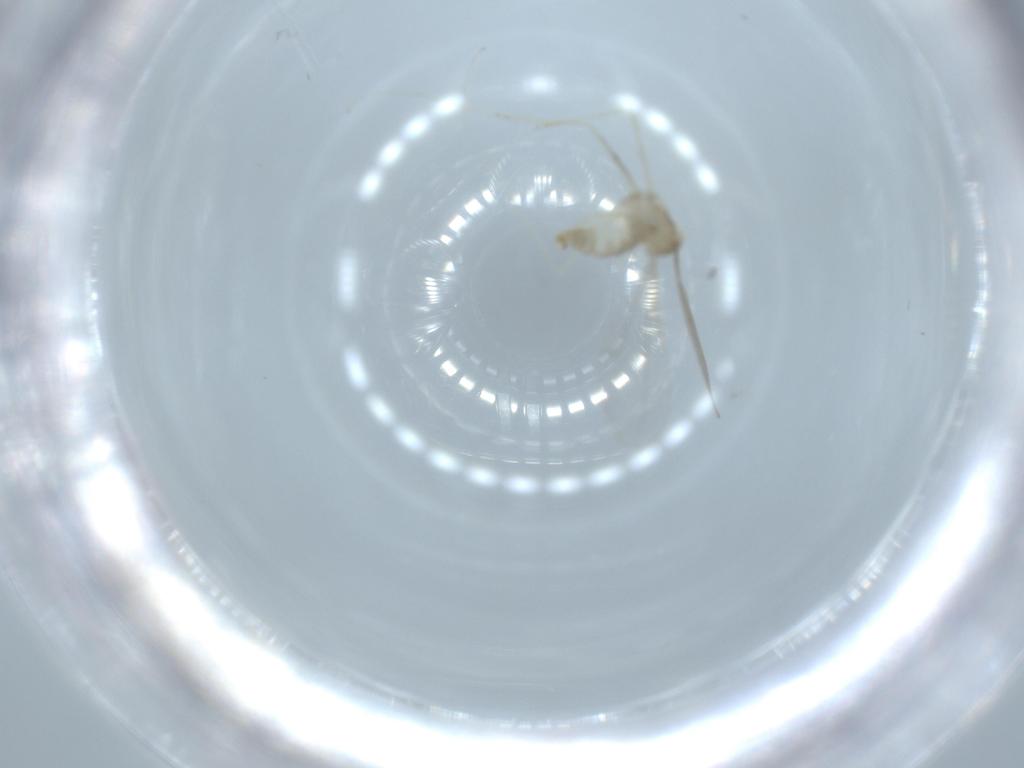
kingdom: Animalia
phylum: Arthropoda
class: Insecta
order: Diptera
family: Cecidomyiidae
